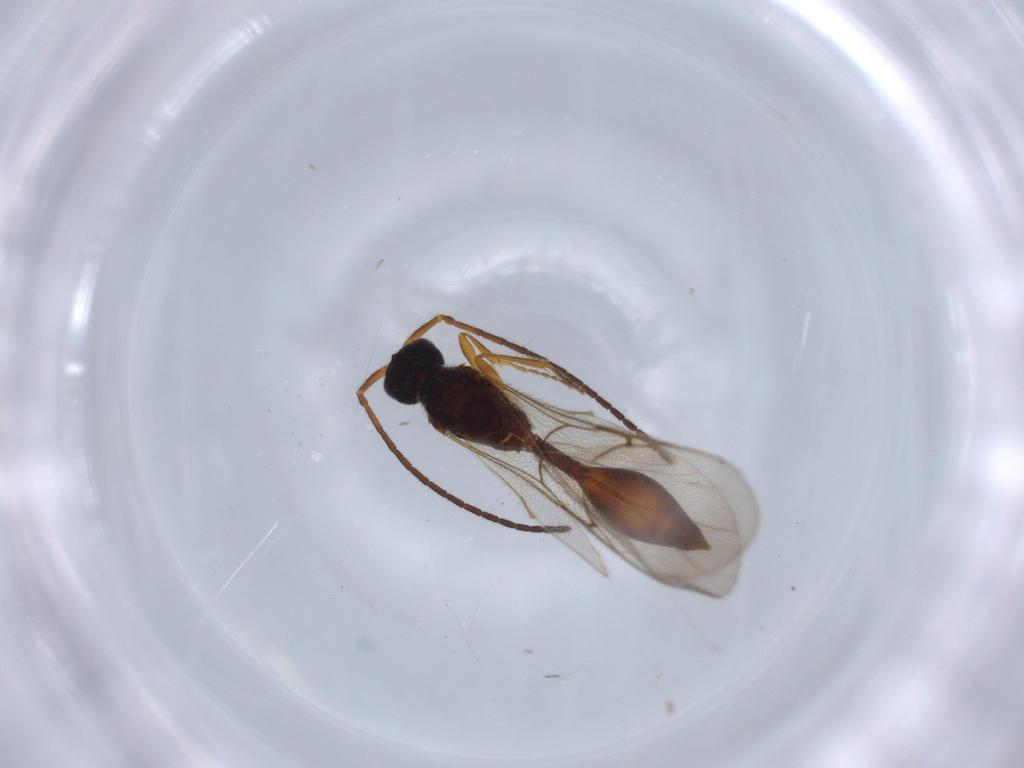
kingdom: Animalia
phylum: Arthropoda
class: Insecta
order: Hymenoptera
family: Ichneumonidae
